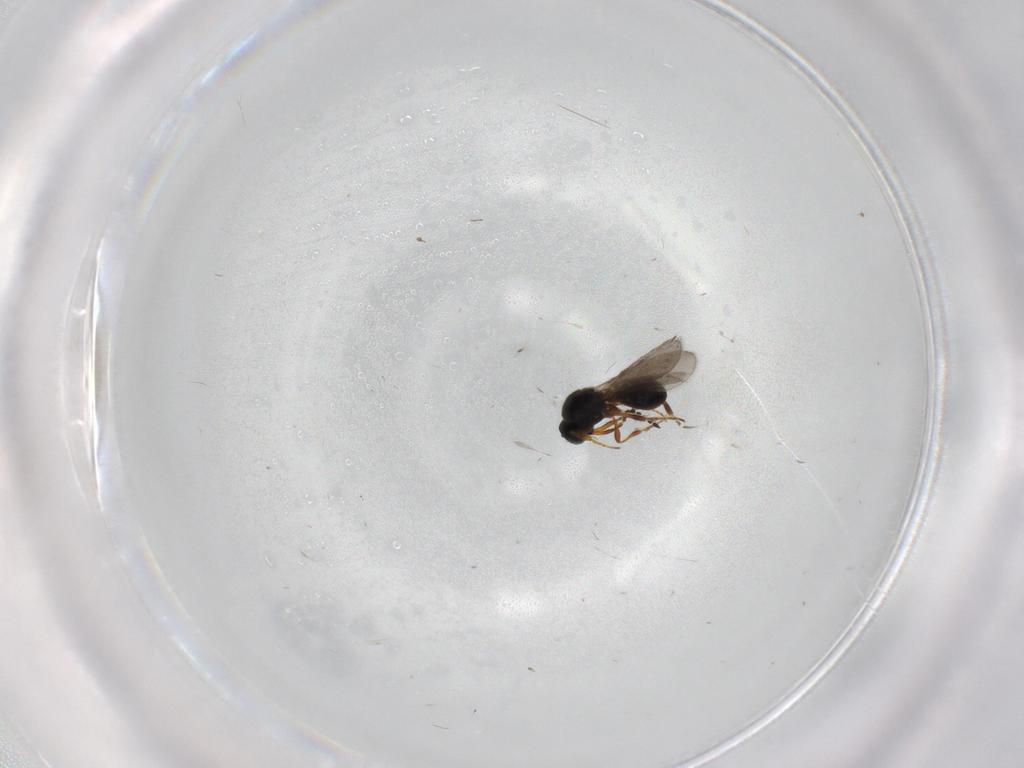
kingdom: Animalia
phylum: Arthropoda
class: Insecta
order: Hymenoptera
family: Platygastridae
